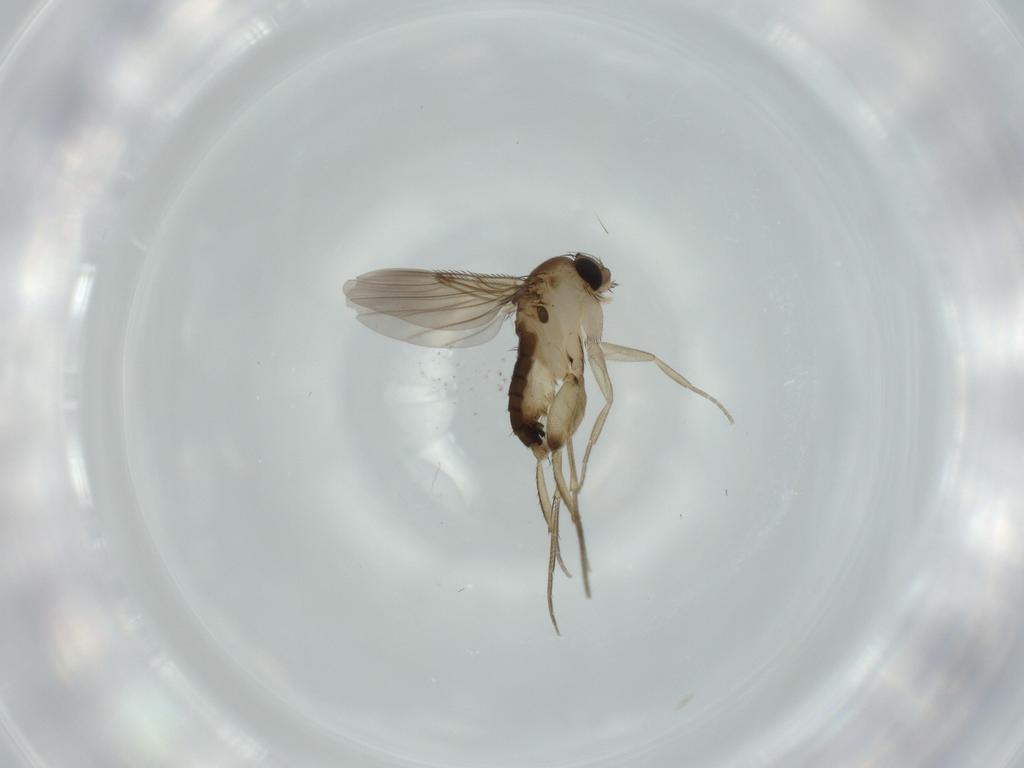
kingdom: Animalia
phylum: Arthropoda
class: Insecta
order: Diptera
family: Phoridae
